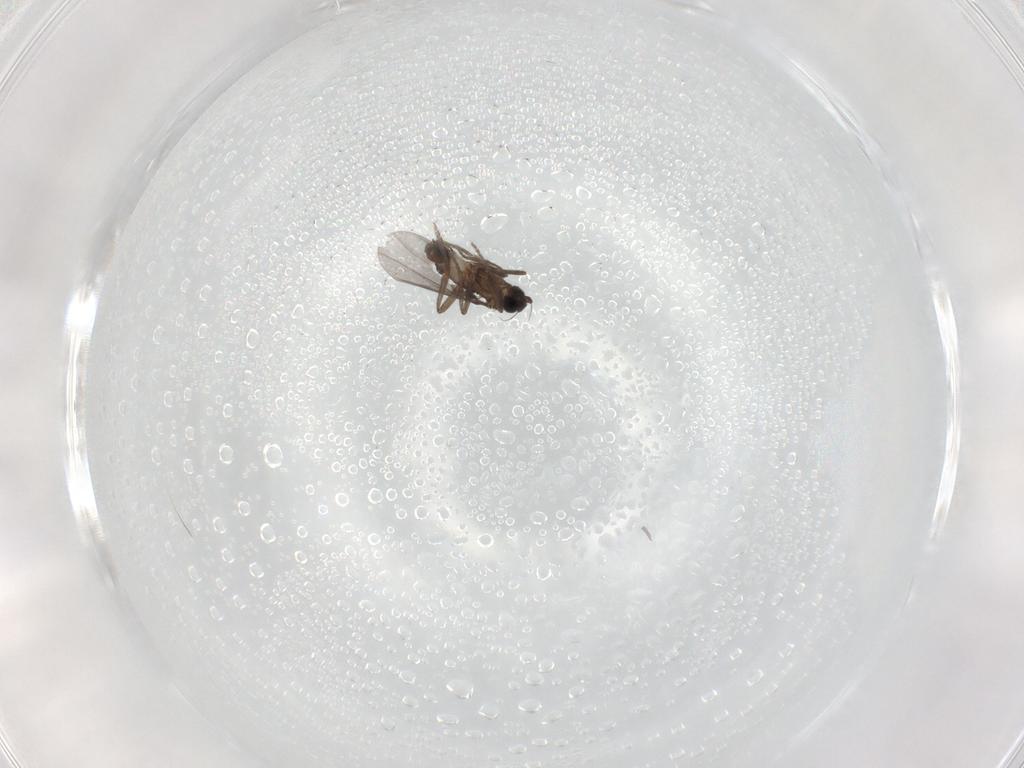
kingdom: Animalia
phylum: Arthropoda
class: Insecta
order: Diptera
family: Phoridae
